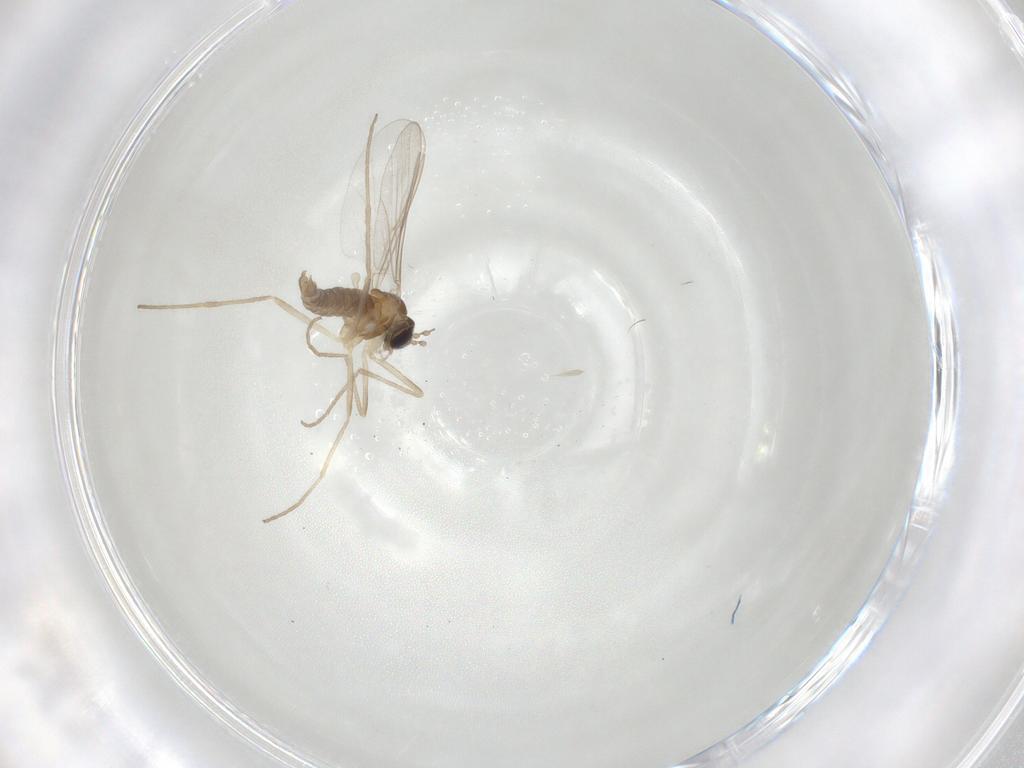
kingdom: Animalia
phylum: Arthropoda
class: Insecta
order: Diptera
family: Cecidomyiidae
